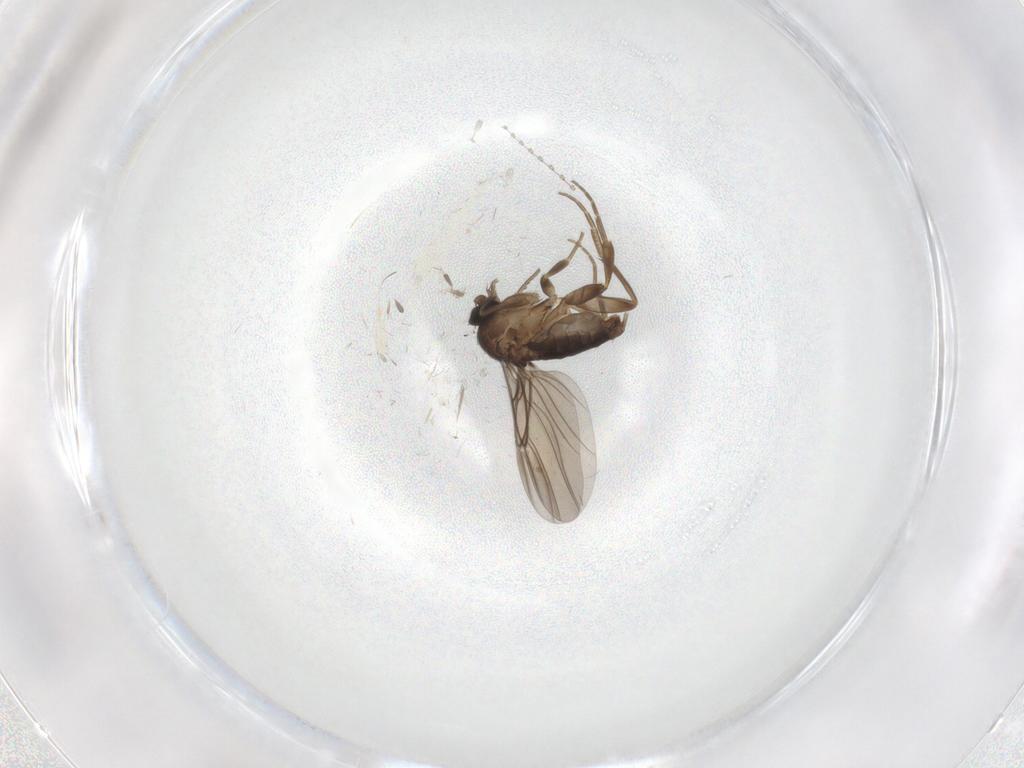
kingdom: Animalia
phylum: Arthropoda
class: Insecta
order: Diptera
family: Phoridae
